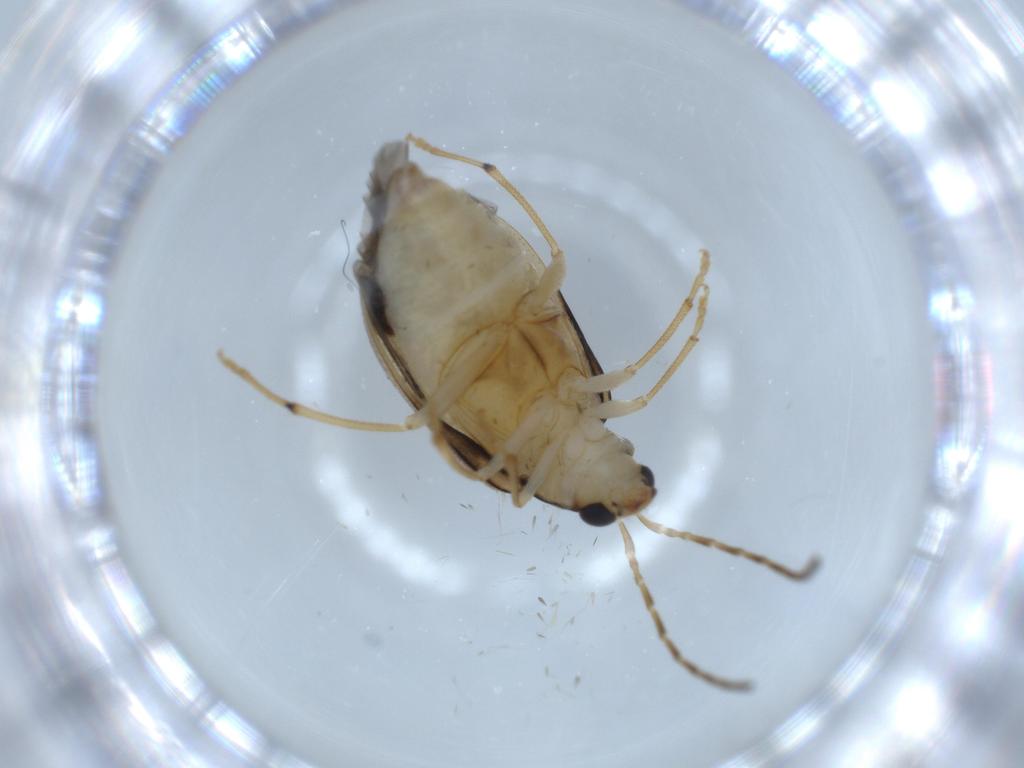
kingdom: Animalia
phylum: Arthropoda
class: Insecta
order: Coleoptera
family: Chrysomelidae
